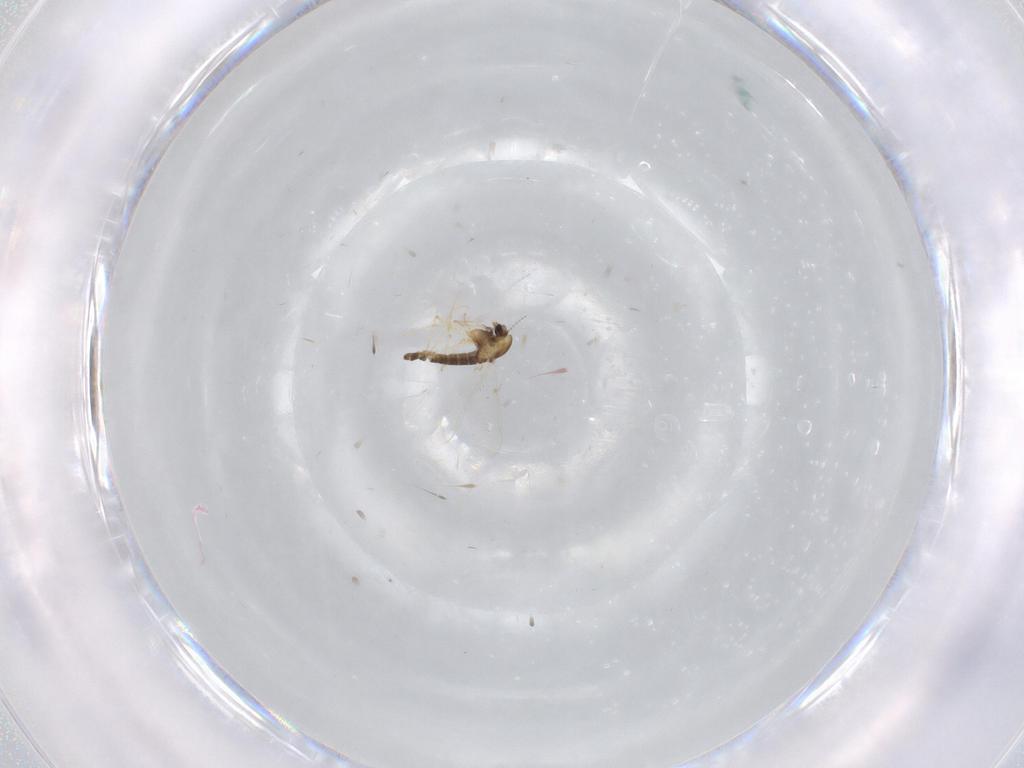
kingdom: Animalia
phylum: Arthropoda
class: Insecta
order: Diptera
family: Chironomidae
